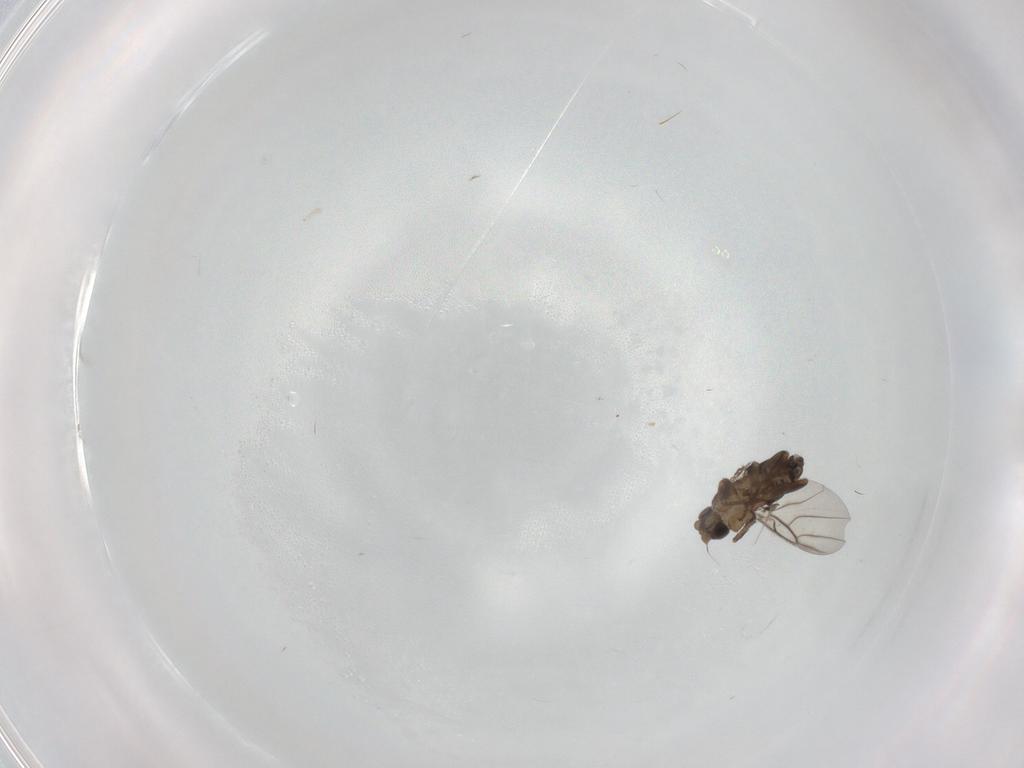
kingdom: Animalia
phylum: Arthropoda
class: Insecta
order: Diptera
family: Phoridae
